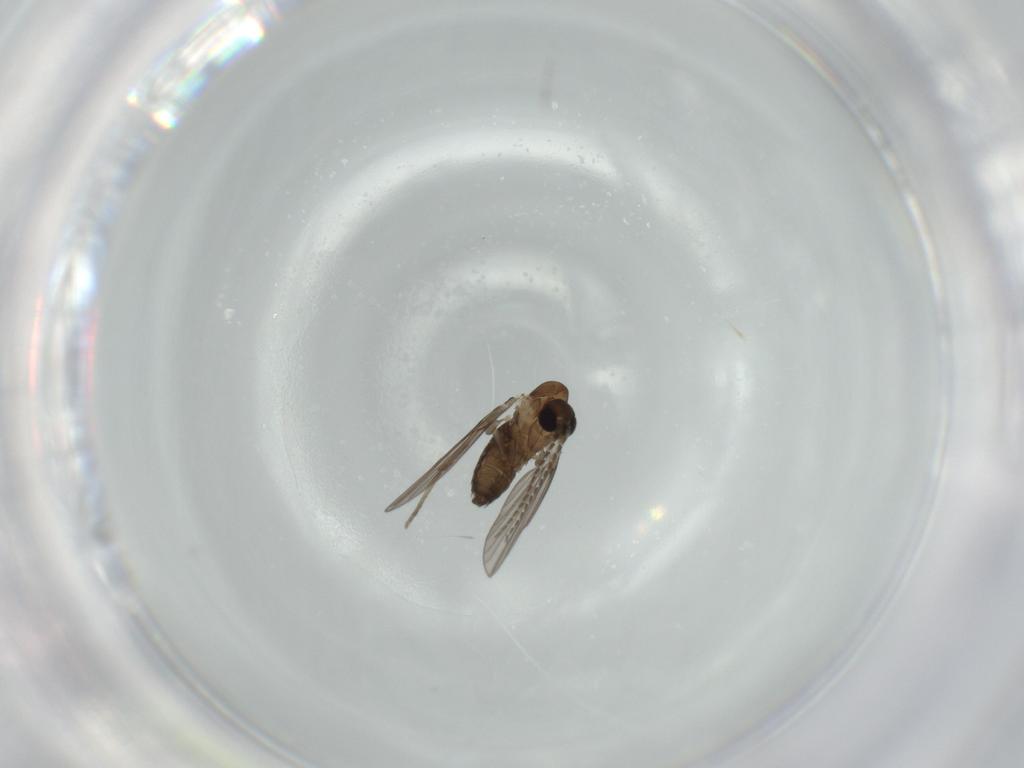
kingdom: Animalia
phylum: Arthropoda
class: Insecta
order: Diptera
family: Psychodidae
